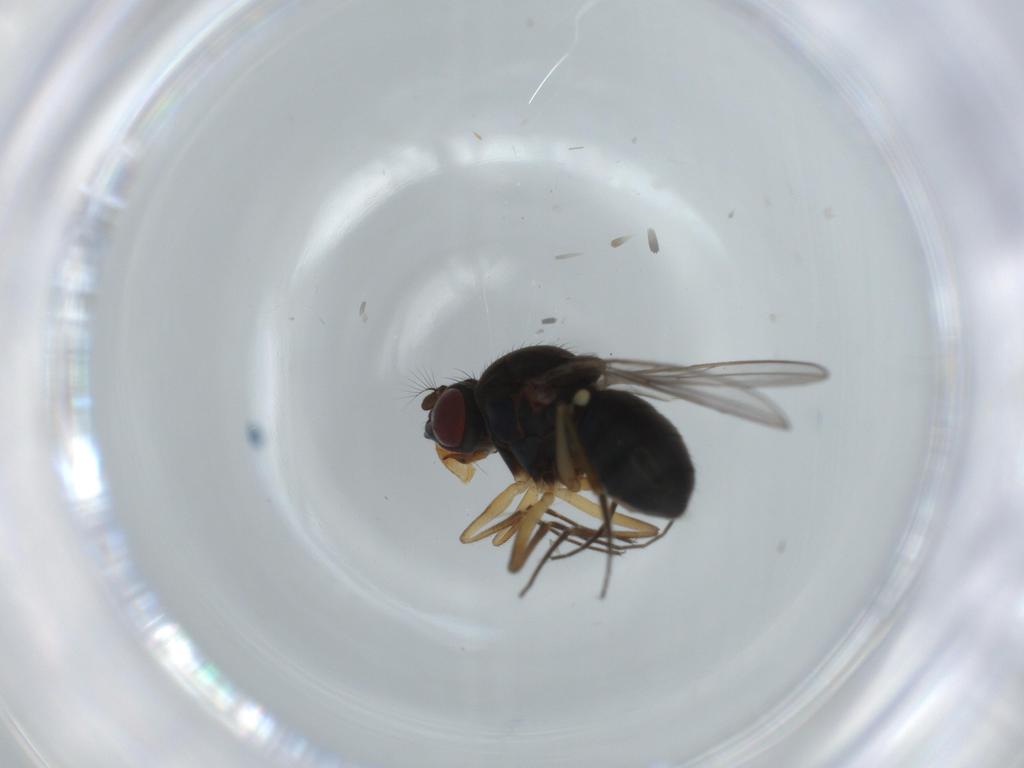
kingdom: Animalia
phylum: Arthropoda
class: Insecta
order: Diptera
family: Ephydridae
